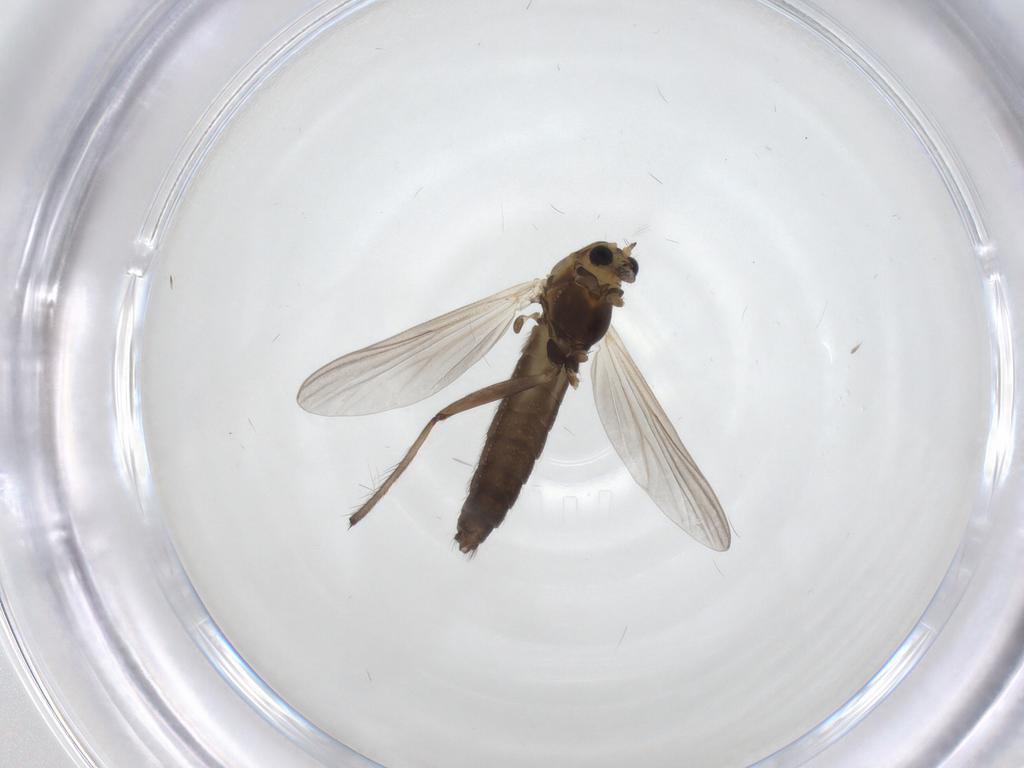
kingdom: Animalia
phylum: Arthropoda
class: Insecta
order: Diptera
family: Chironomidae
